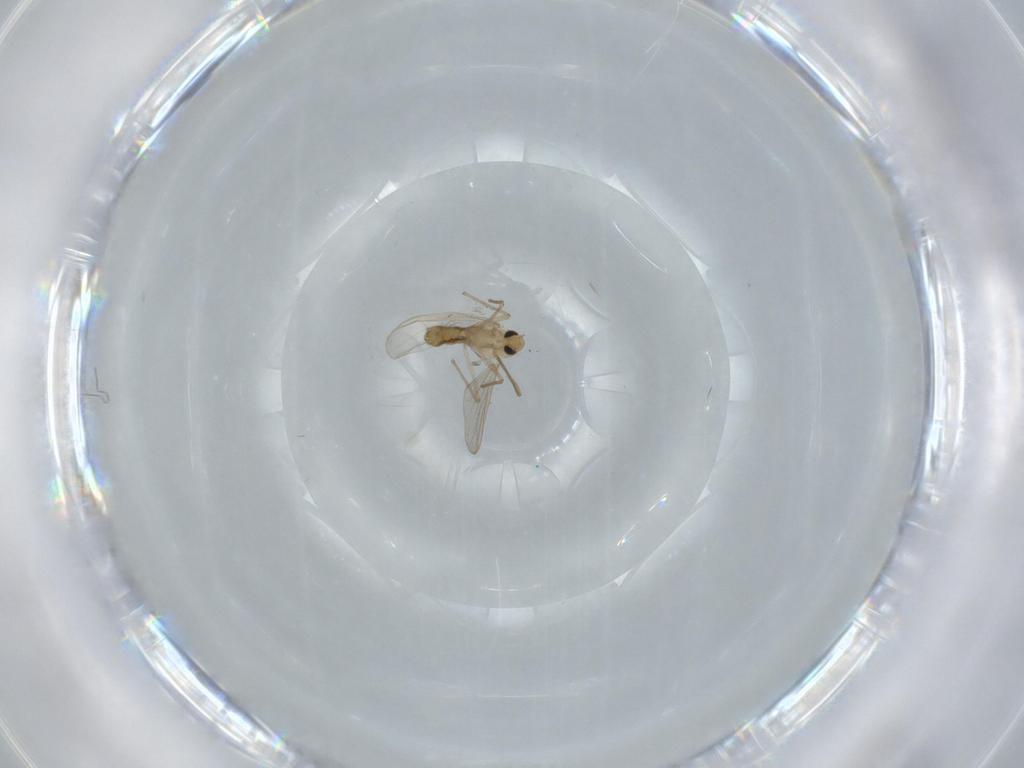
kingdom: Animalia
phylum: Arthropoda
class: Insecta
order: Diptera
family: Chironomidae
